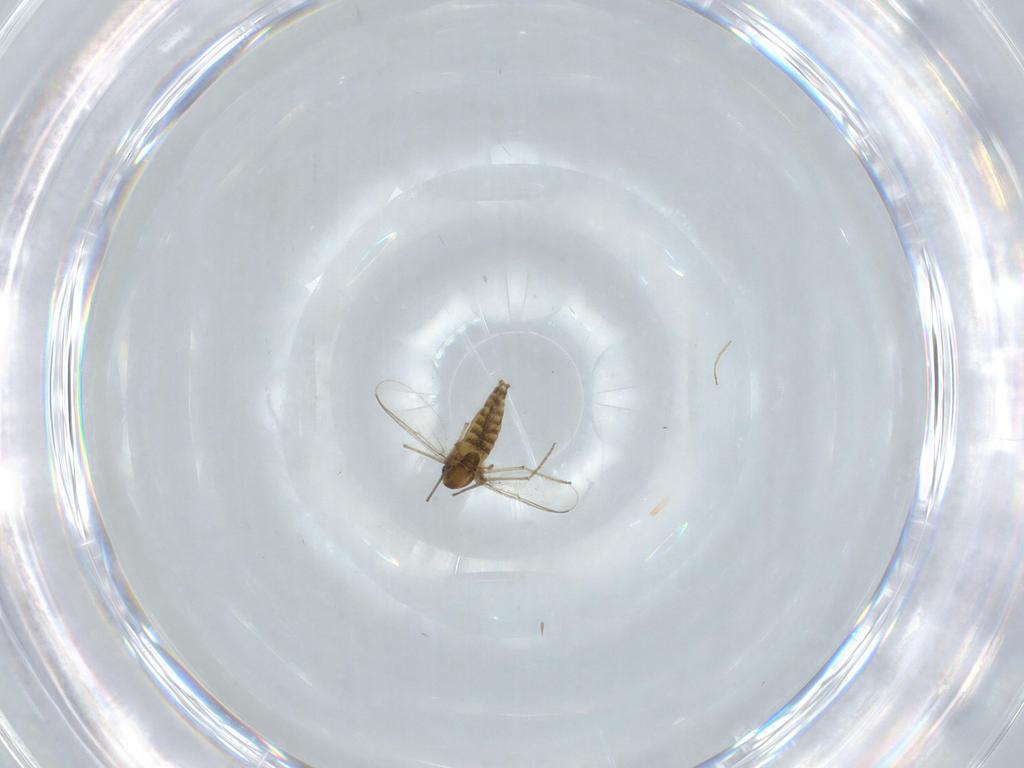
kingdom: Animalia
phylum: Arthropoda
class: Insecta
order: Diptera
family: Chironomidae
